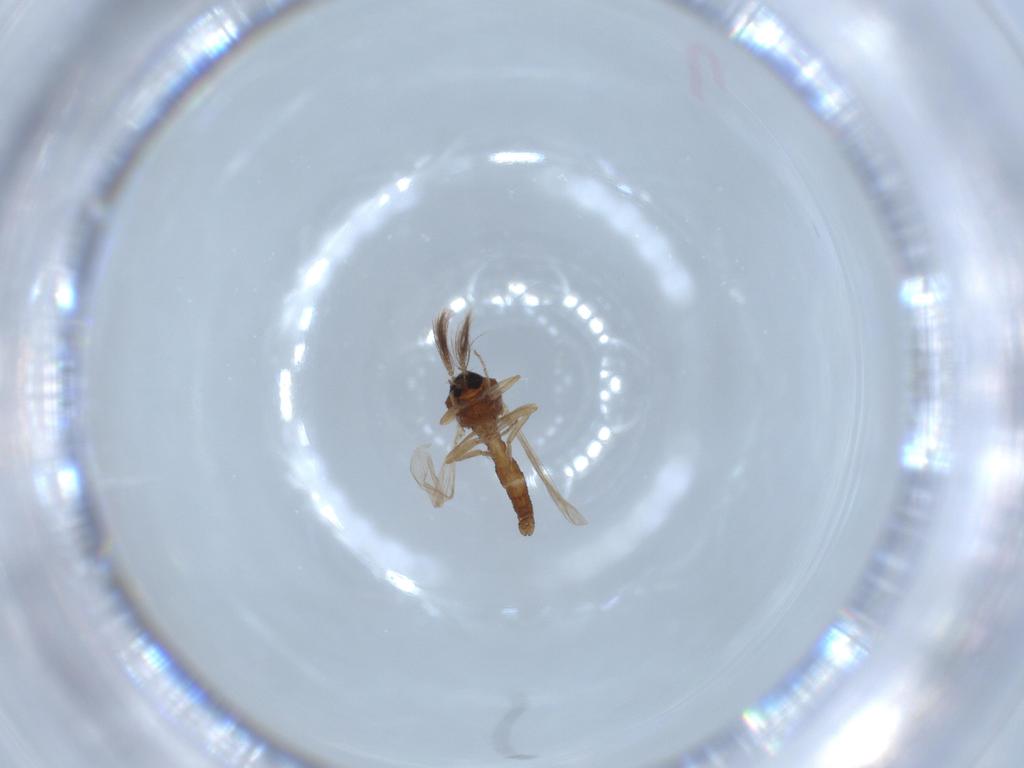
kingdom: Animalia
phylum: Arthropoda
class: Insecta
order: Diptera
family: Ceratopogonidae
